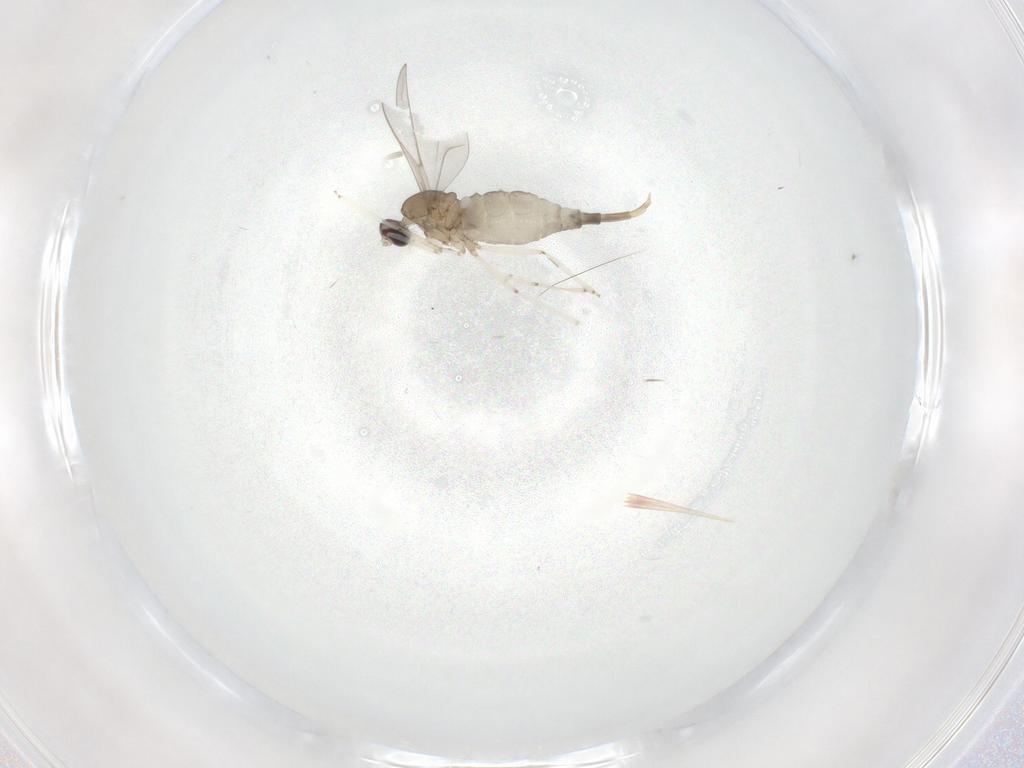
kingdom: Animalia
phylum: Arthropoda
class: Insecta
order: Diptera
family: Cecidomyiidae
